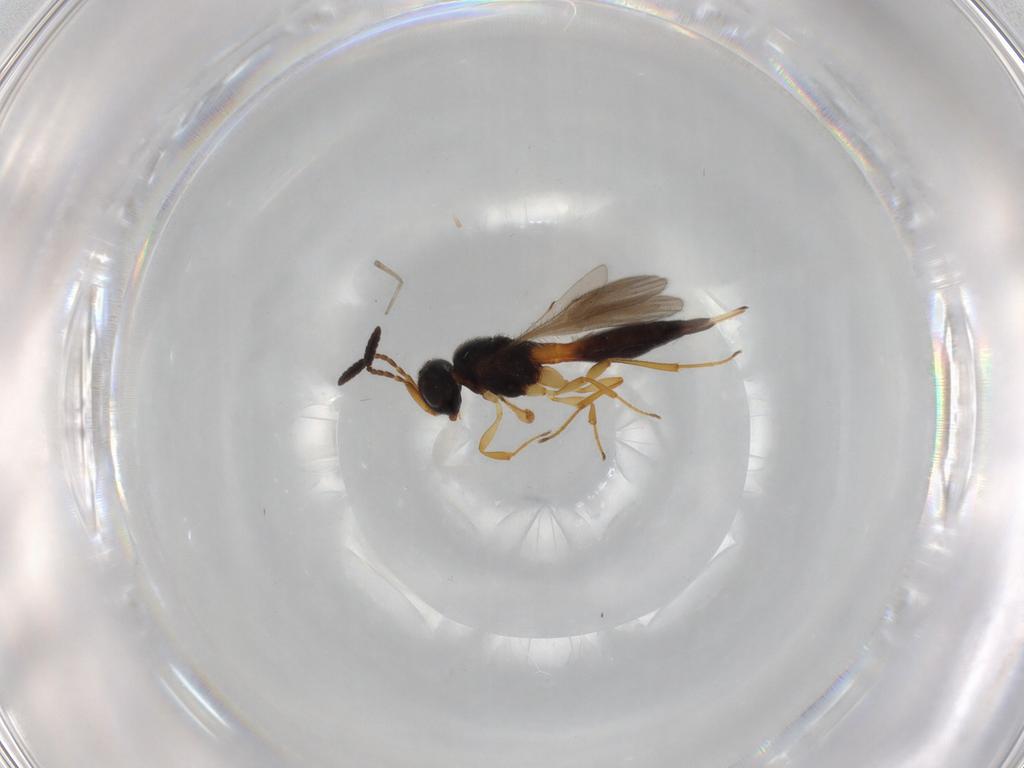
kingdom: Animalia
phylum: Arthropoda
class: Insecta
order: Hymenoptera
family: Scelionidae
